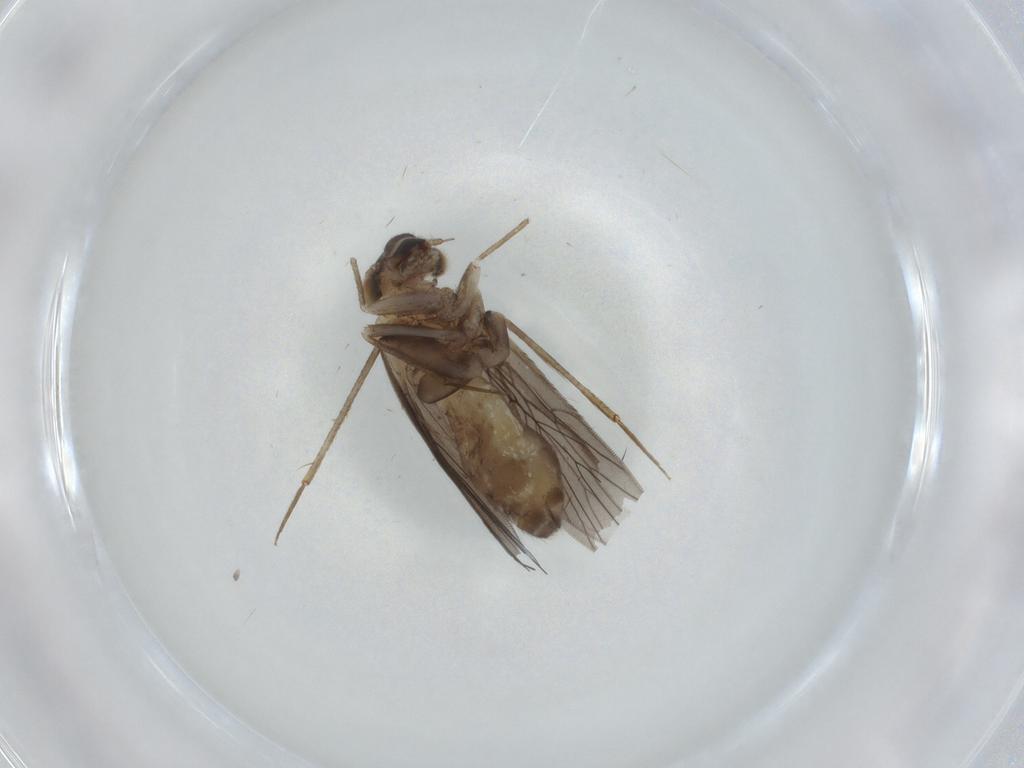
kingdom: Animalia
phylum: Arthropoda
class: Insecta
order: Psocodea
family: Lepidopsocidae
